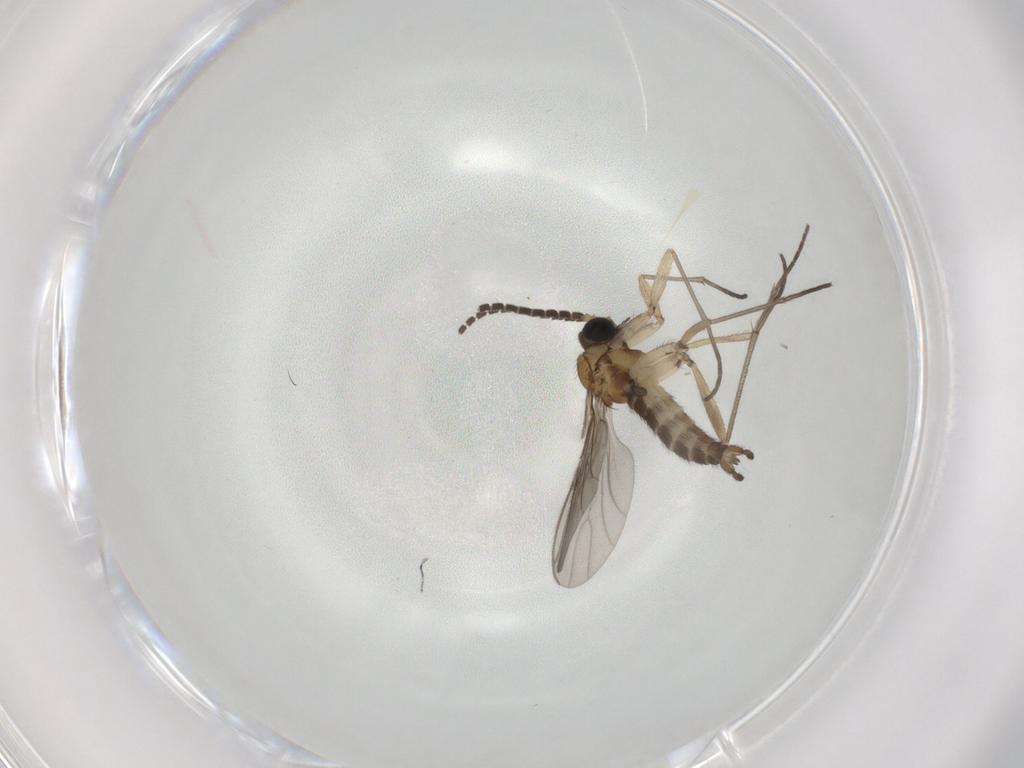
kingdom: Animalia
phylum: Arthropoda
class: Insecta
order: Diptera
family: Sciaridae
